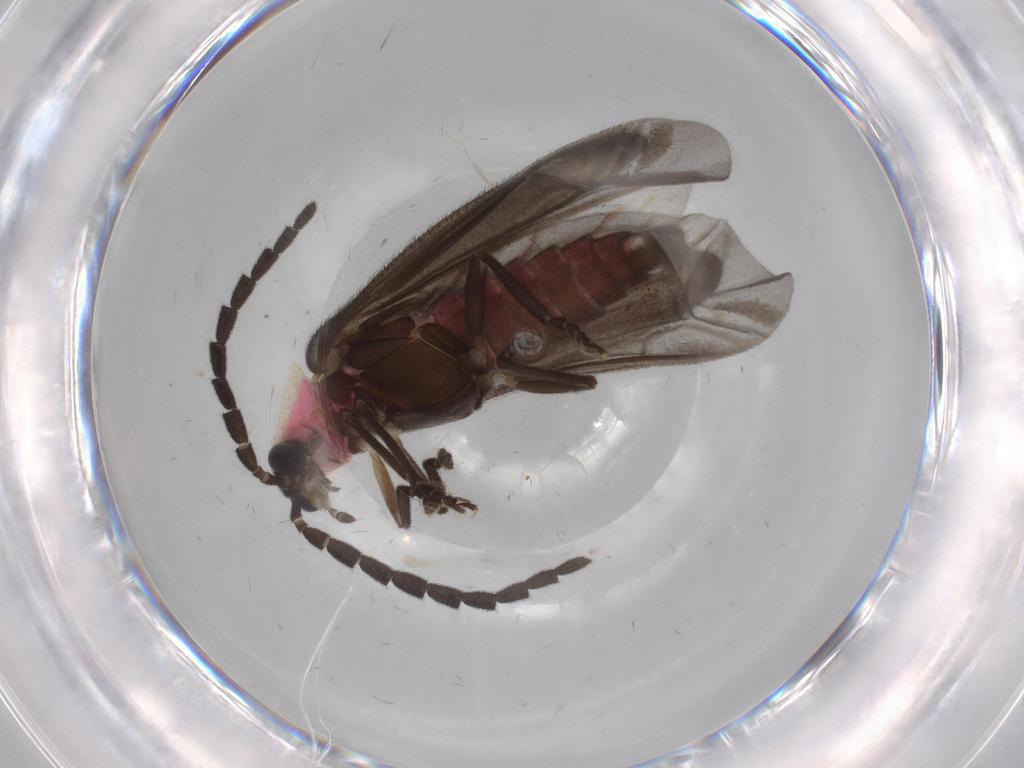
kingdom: Animalia
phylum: Arthropoda
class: Insecta
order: Coleoptera
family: Lampyridae
